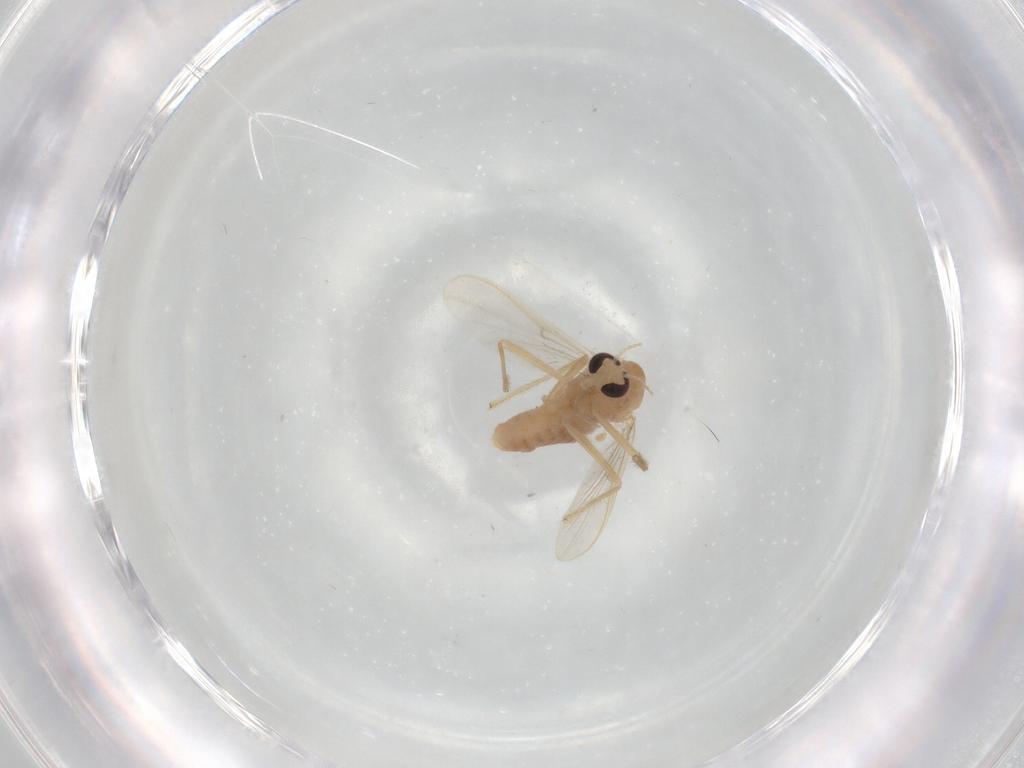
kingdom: Animalia
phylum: Arthropoda
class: Insecta
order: Diptera
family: Chironomidae
